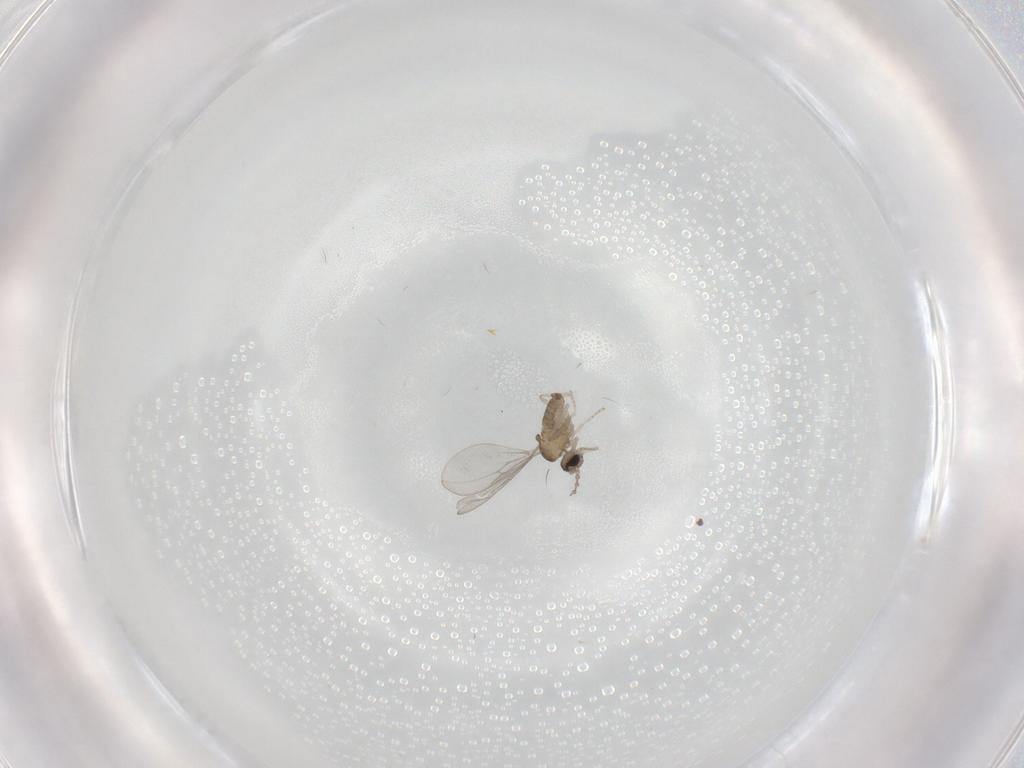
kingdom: Animalia
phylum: Arthropoda
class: Insecta
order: Diptera
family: Cecidomyiidae
